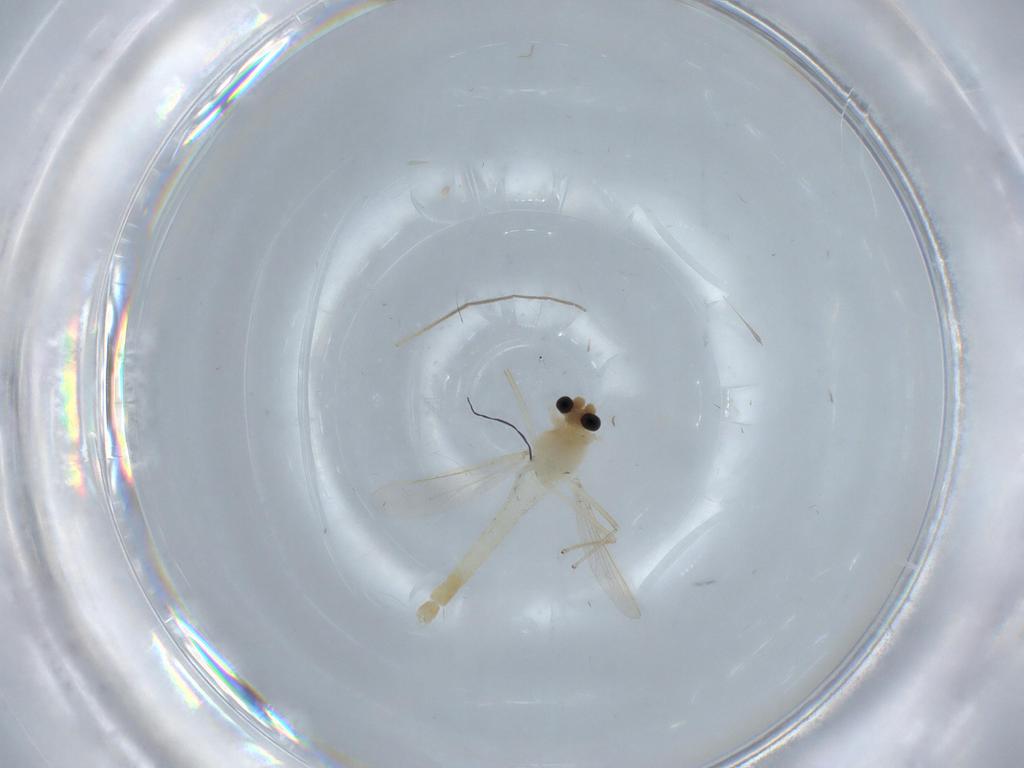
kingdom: Animalia
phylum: Arthropoda
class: Insecta
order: Diptera
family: Chironomidae
